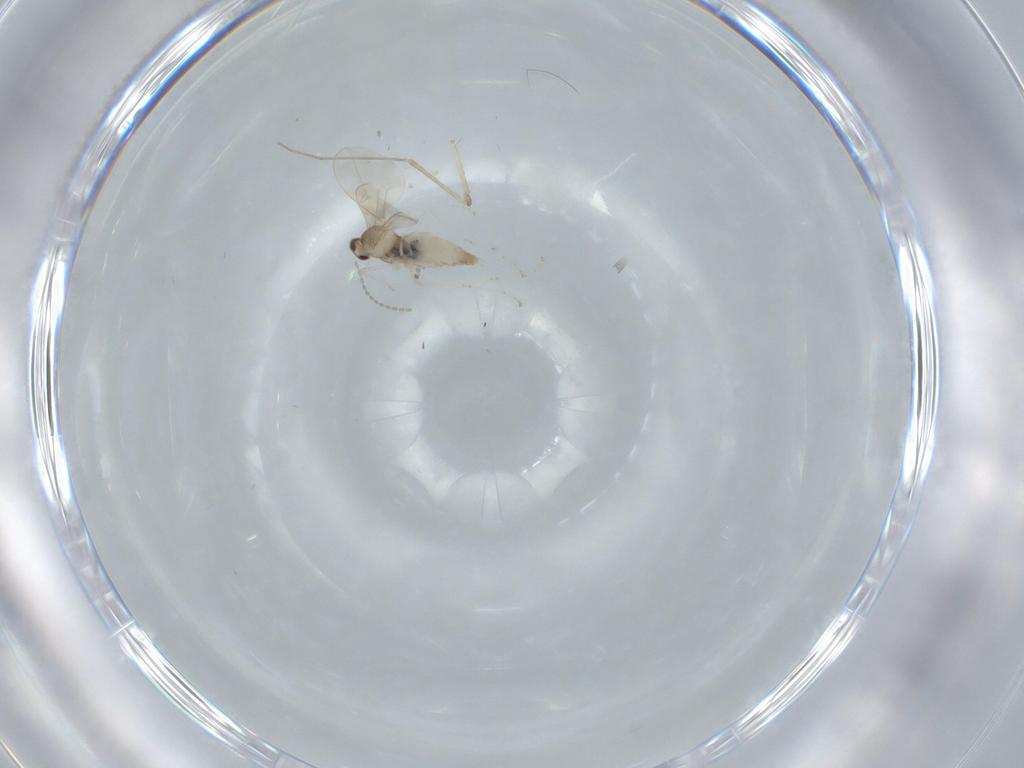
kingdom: Animalia
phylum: Arthropoda
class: Insecta
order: Diptera
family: Cecidomyiidae
